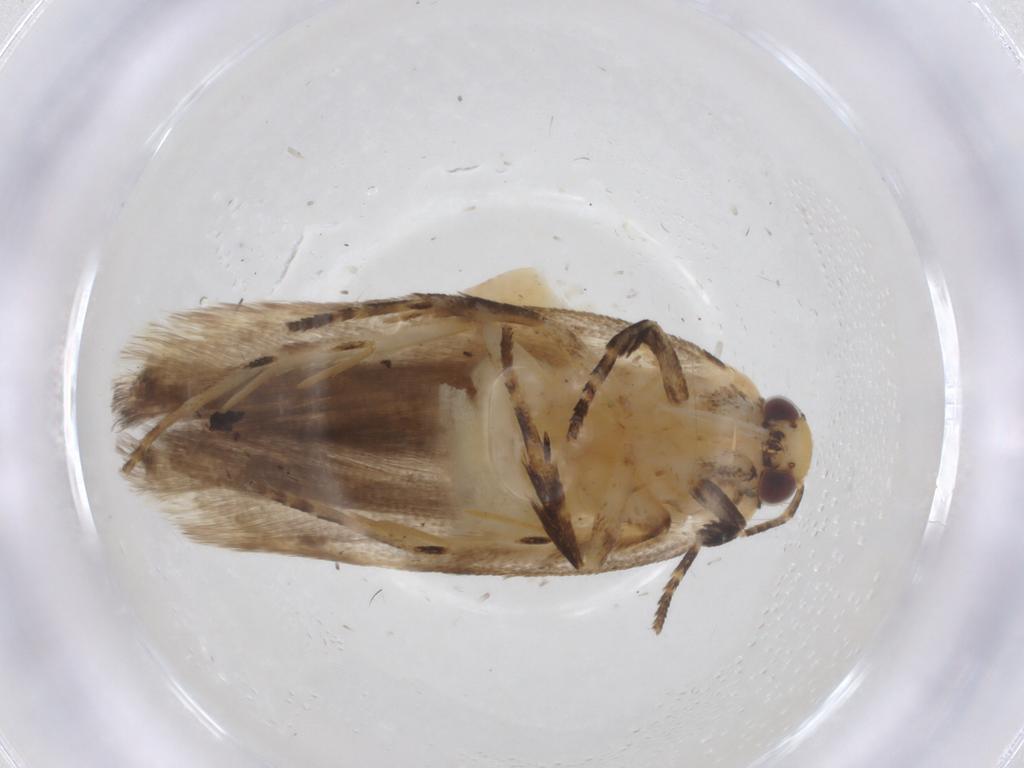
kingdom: Animalia
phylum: Arthropoda
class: Insecta
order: Lepidoptera
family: Gelechiidae
